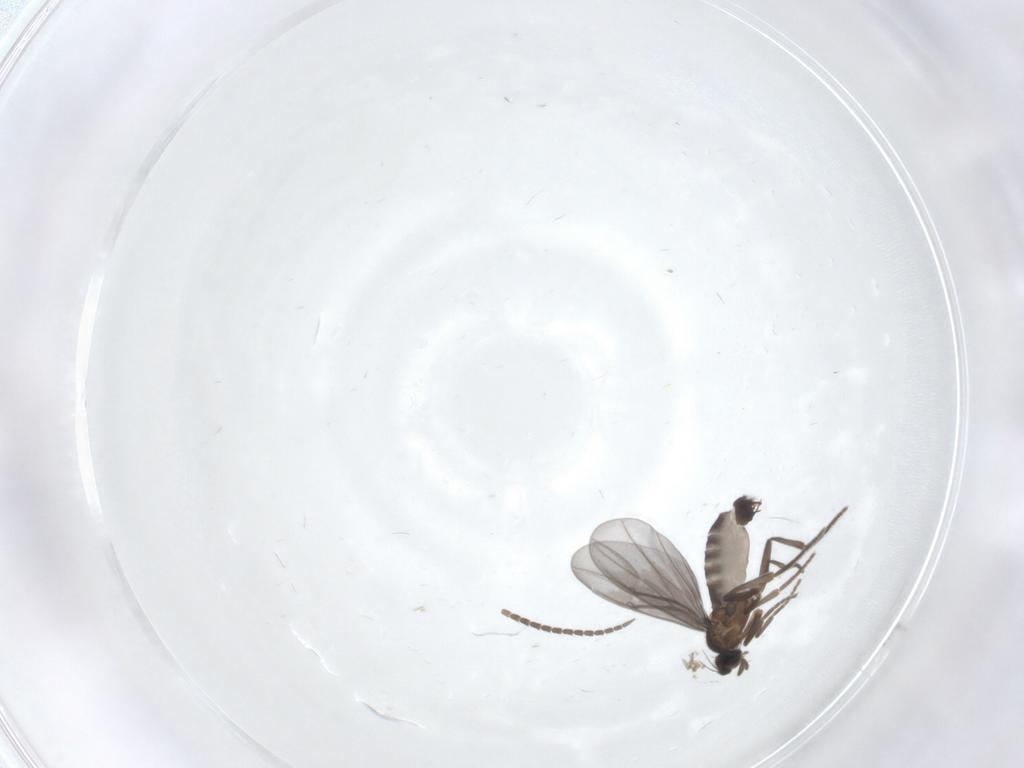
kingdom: Animalia
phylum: Arthropoda
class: Insecta
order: Diptera
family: Phoridae
